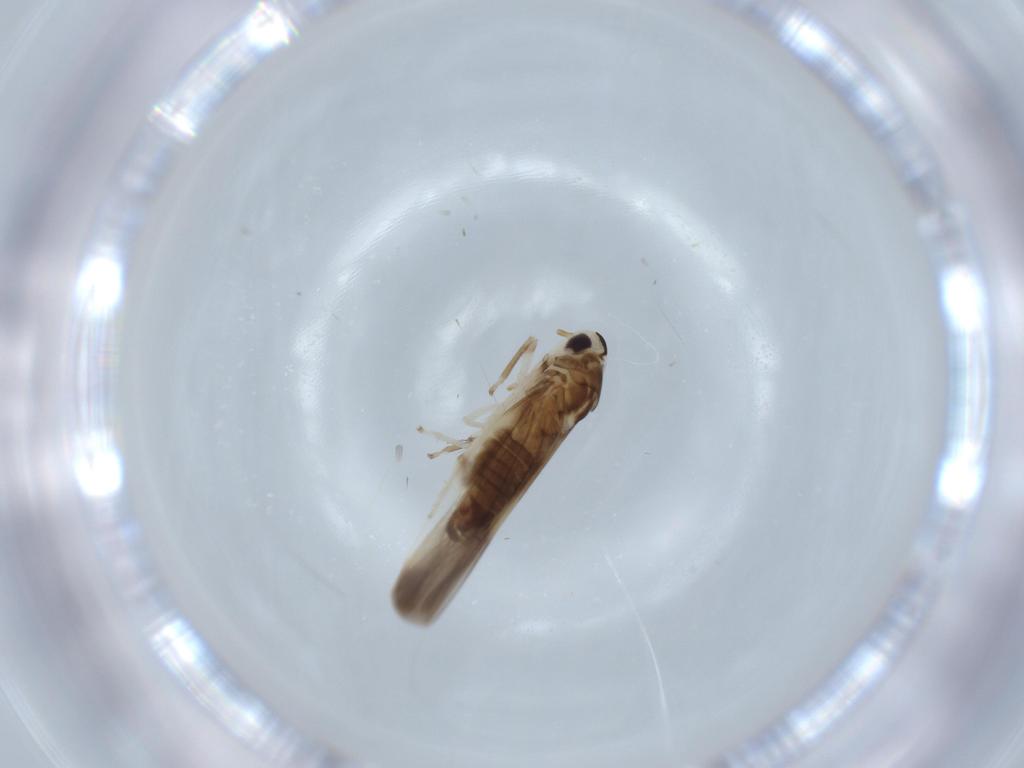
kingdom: Animalia
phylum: Arthropoda
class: Insecta
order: Hemiptera
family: Cicadellidae
